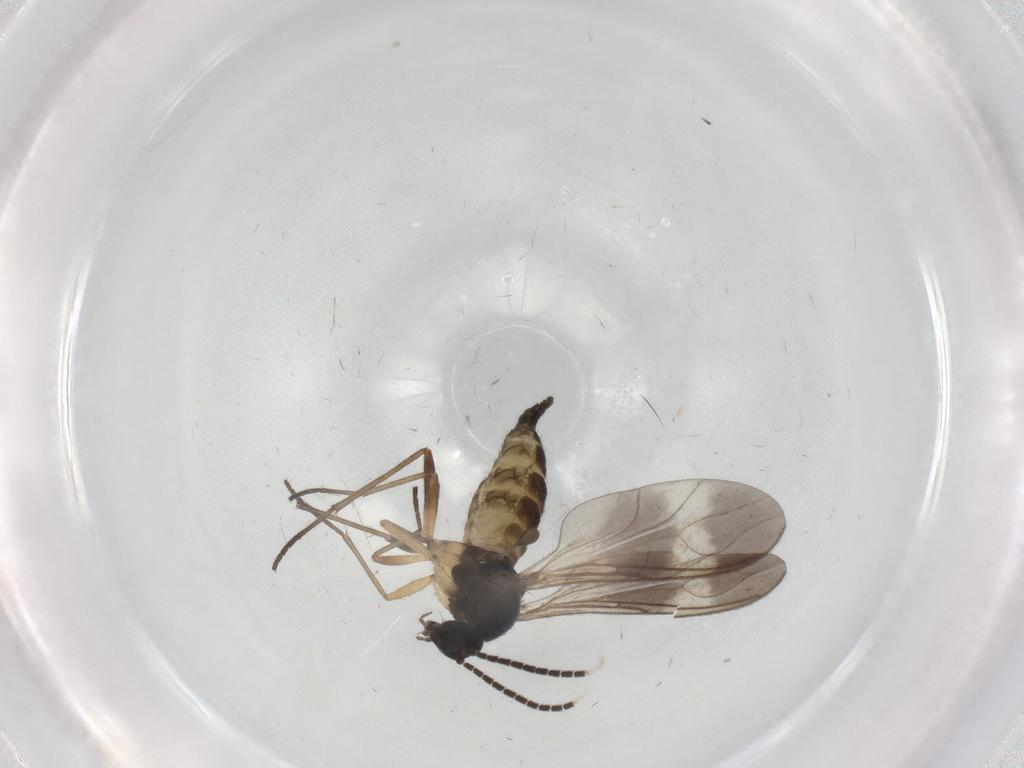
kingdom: Animalia
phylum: Arthropoda
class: Insecta
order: Diptera
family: Sciaridae
